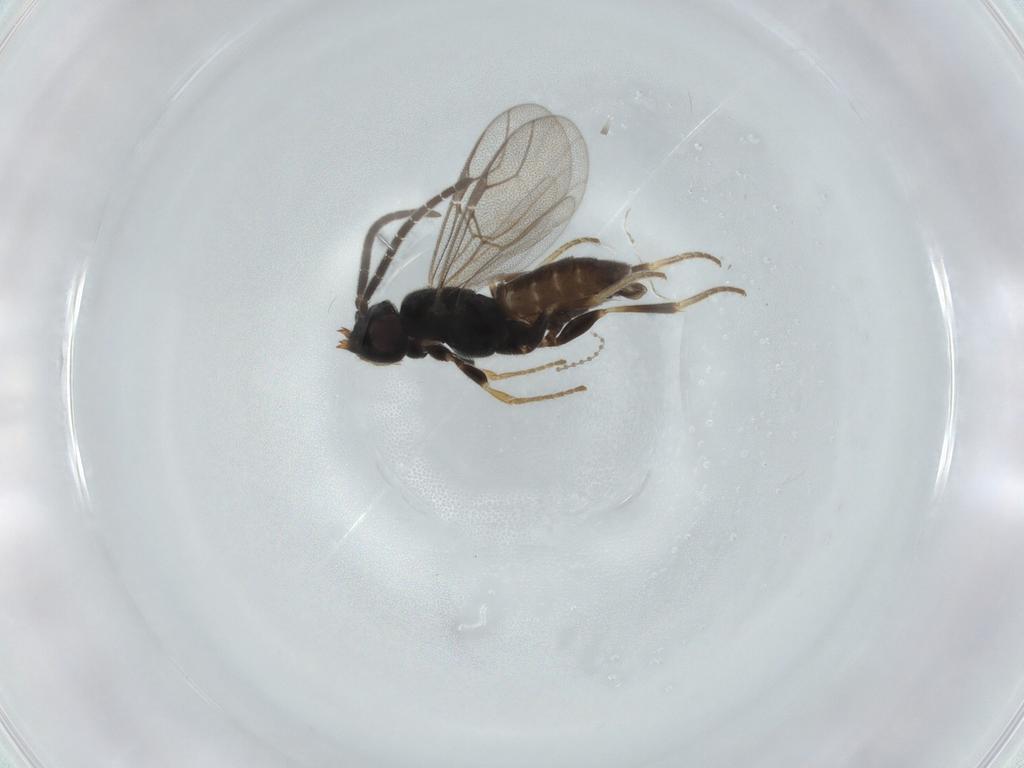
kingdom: Animalia
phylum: Arthropoda
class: Insecta
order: Hymenoptera
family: Dryinidae
